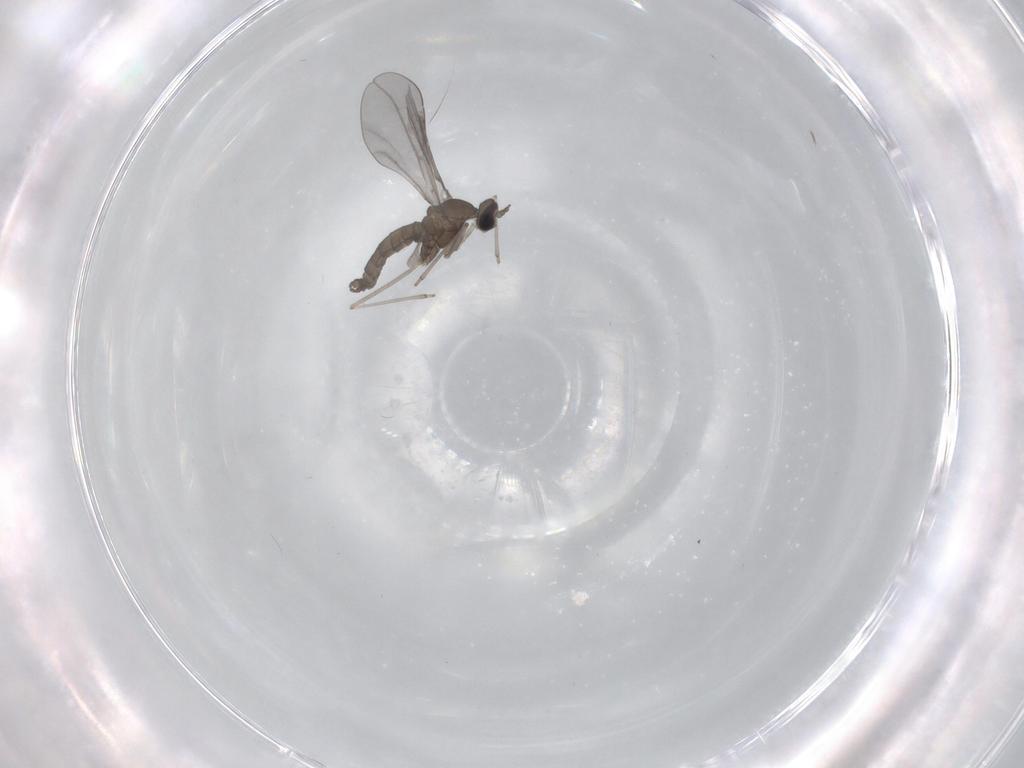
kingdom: Animalia
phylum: Arthropoda
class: Insecta
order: Diptera
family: Cecidomyiidae
